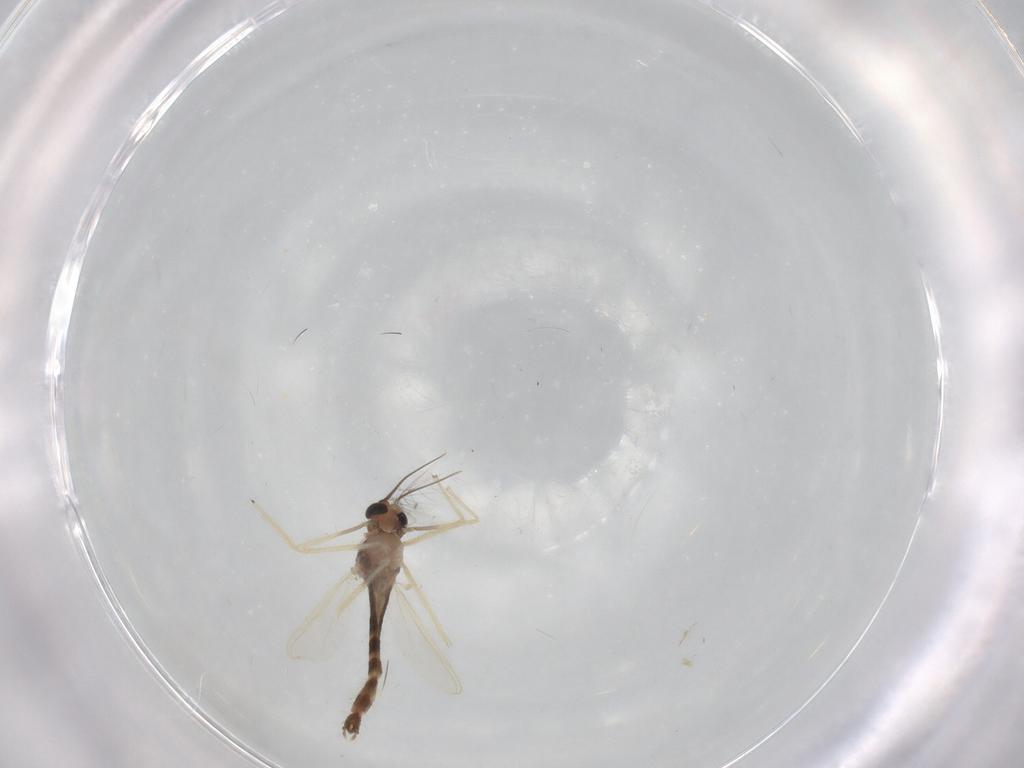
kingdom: Animalia
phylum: Arthropoda
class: Insecta
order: Diptera
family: Chironomidae
